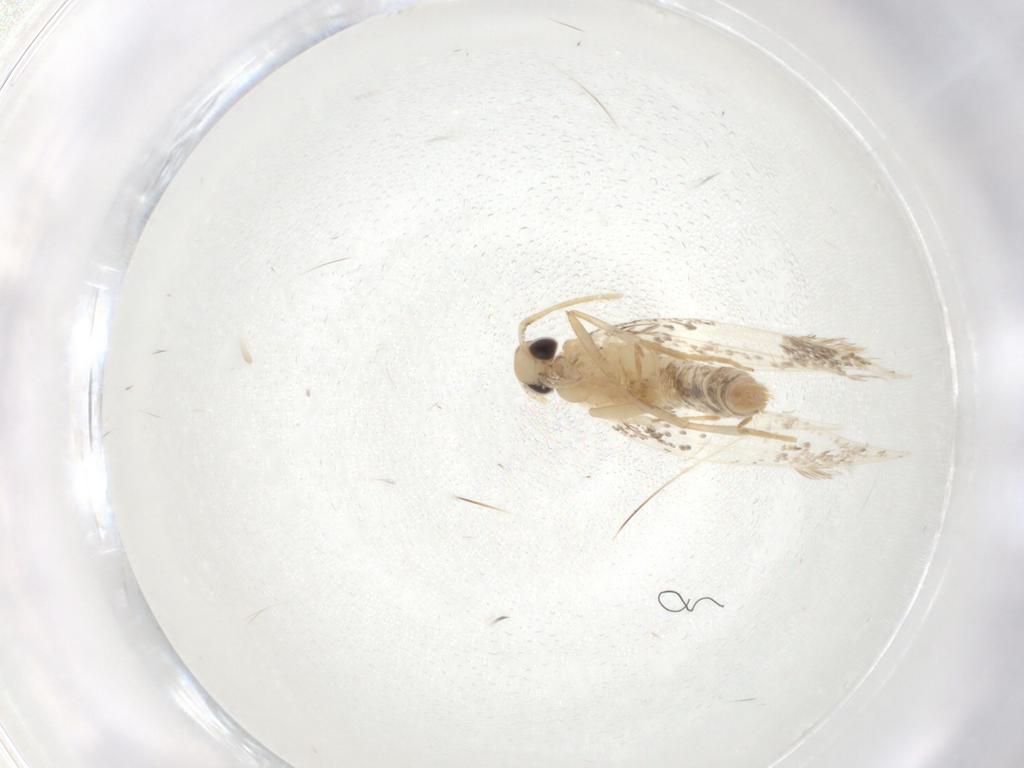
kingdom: Animalia
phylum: Arthropoda
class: Insecta
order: Lepidoptera
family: Cosmopterigidae
